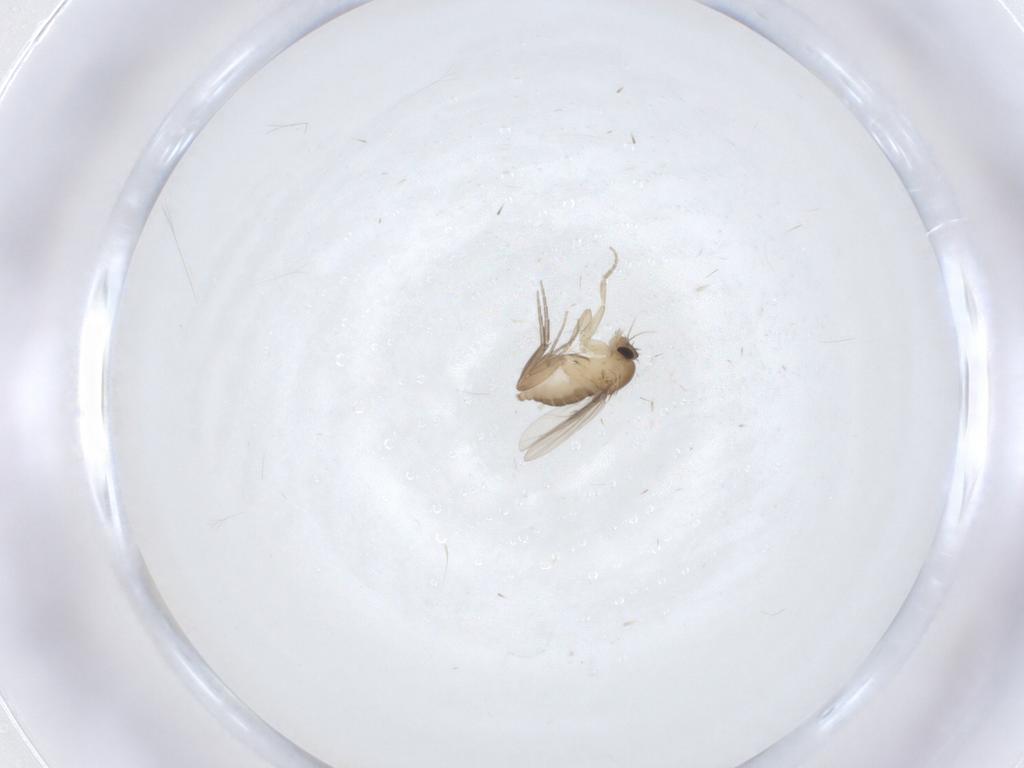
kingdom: Animalia
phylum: Arthropoda
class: Insecta
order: Diptera
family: Phoridae
